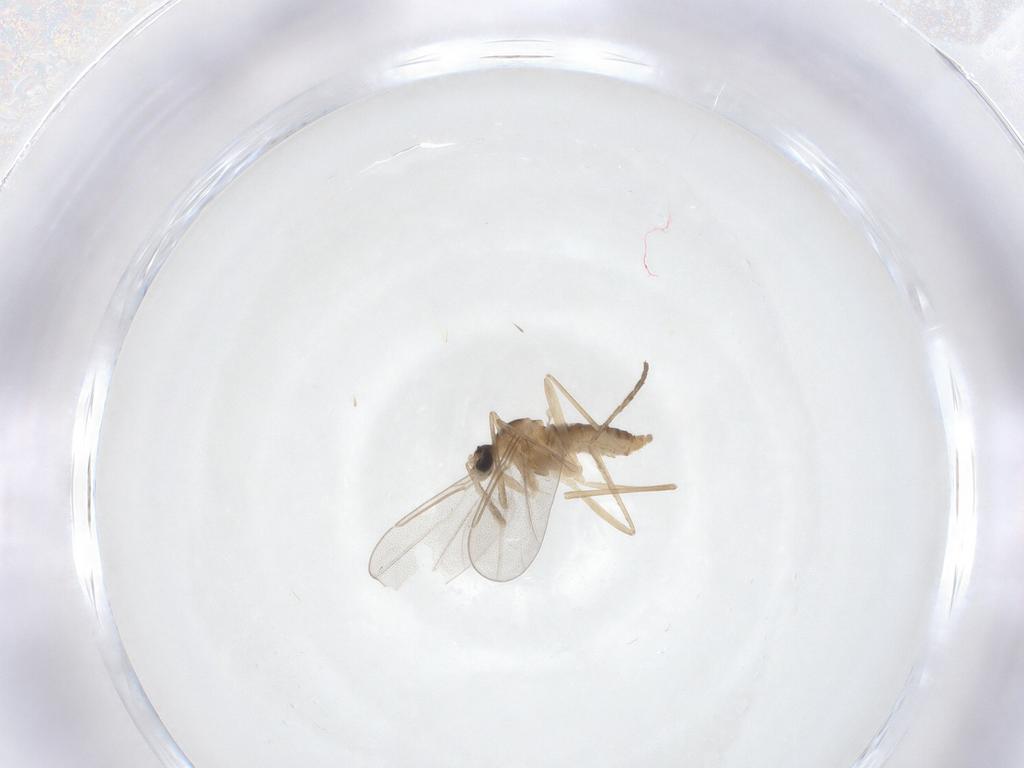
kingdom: Animalia
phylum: Arthropoda
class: Insecta
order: Diptera
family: Cecidomyiidae
